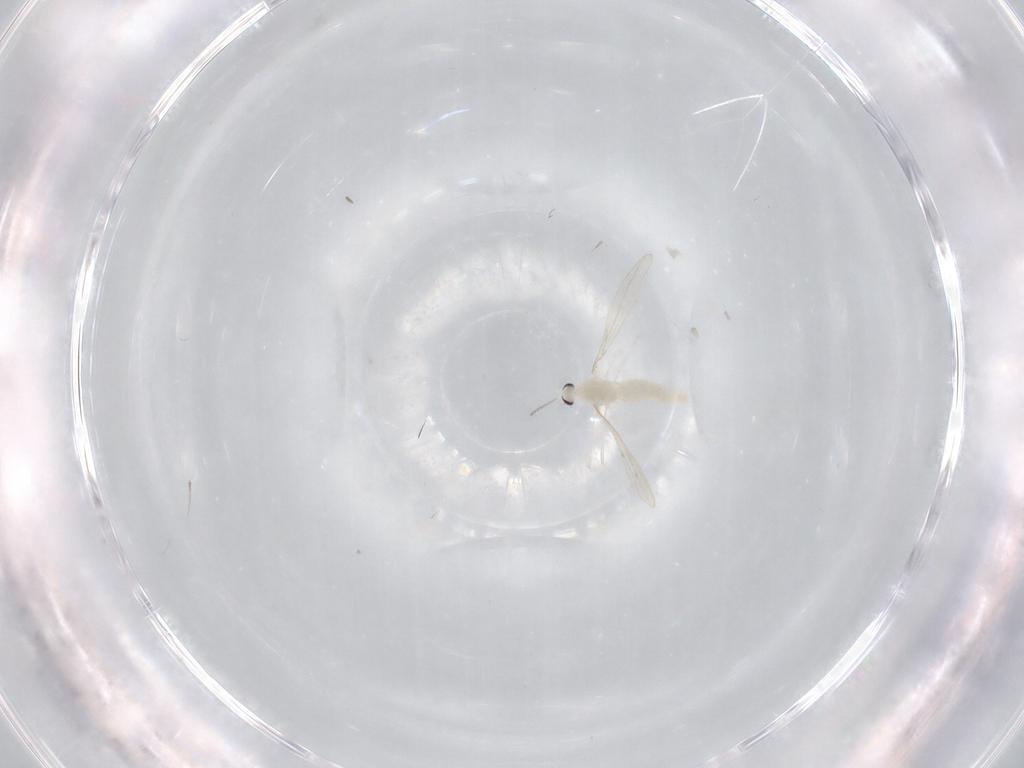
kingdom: Animalia
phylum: Arthropoda
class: Insecta
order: Diptera
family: Cecidomyiidae
